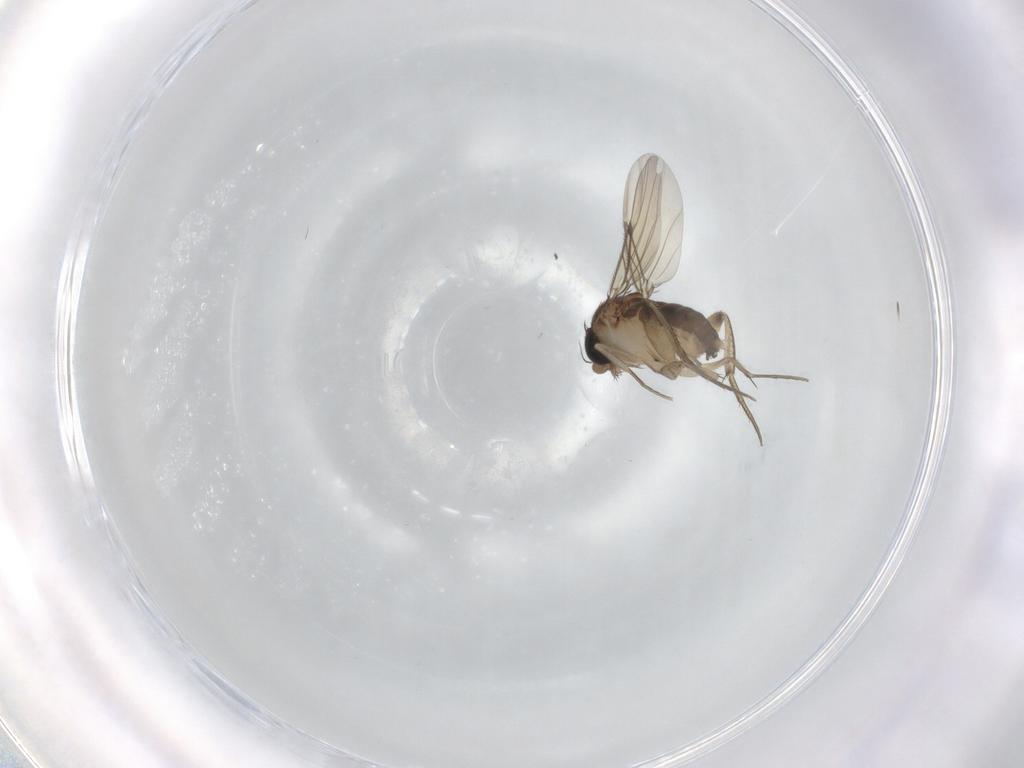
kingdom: Animalia
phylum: Arthropoda
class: Insecta
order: Diptera
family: Phoridae
